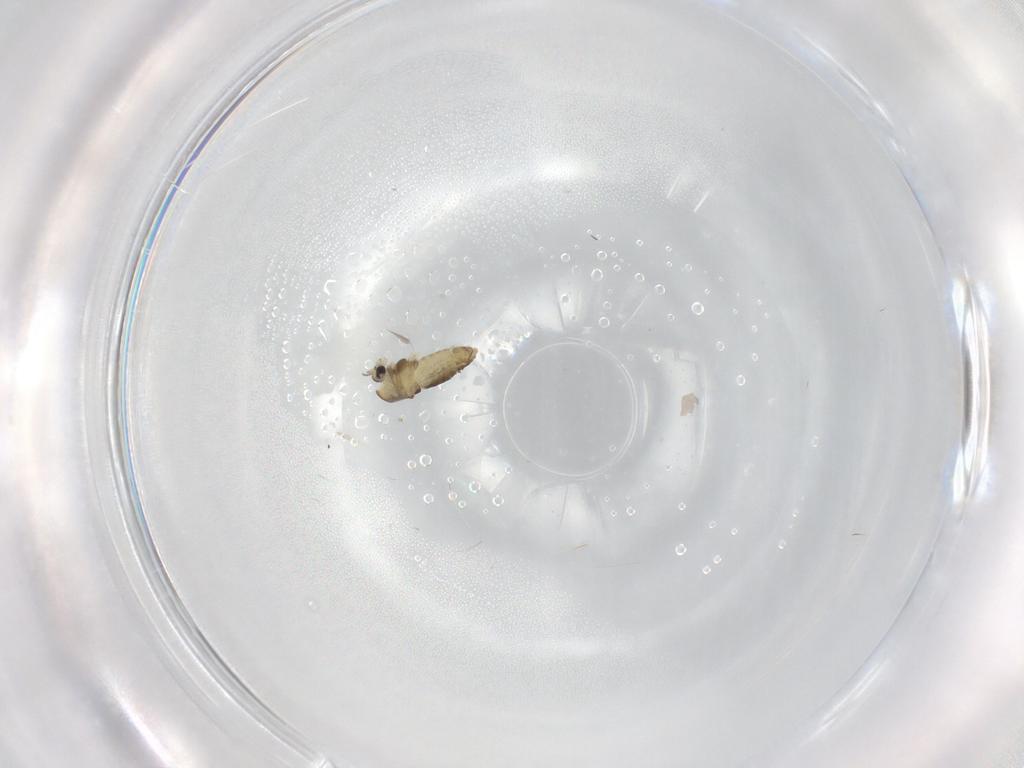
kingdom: Animalia
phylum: Arthropoda
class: Insecta
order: Diptera
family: Chironomidae
